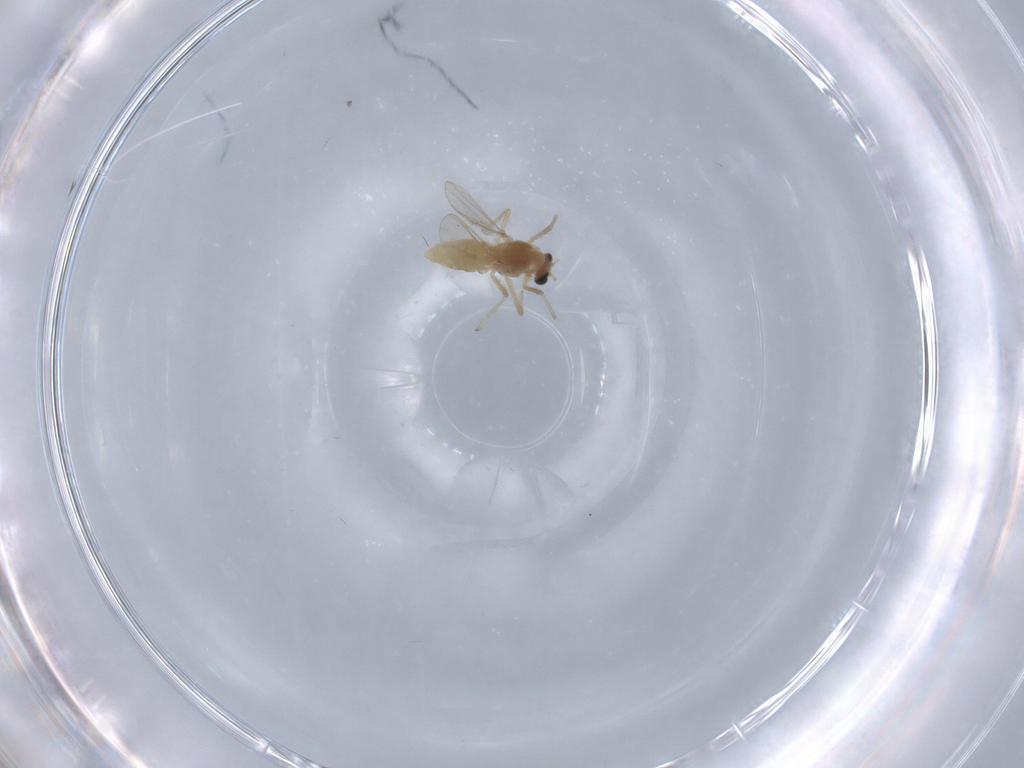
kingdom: Animalia
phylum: Arthropoda
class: Insecta
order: Diptera
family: Chironomidae
